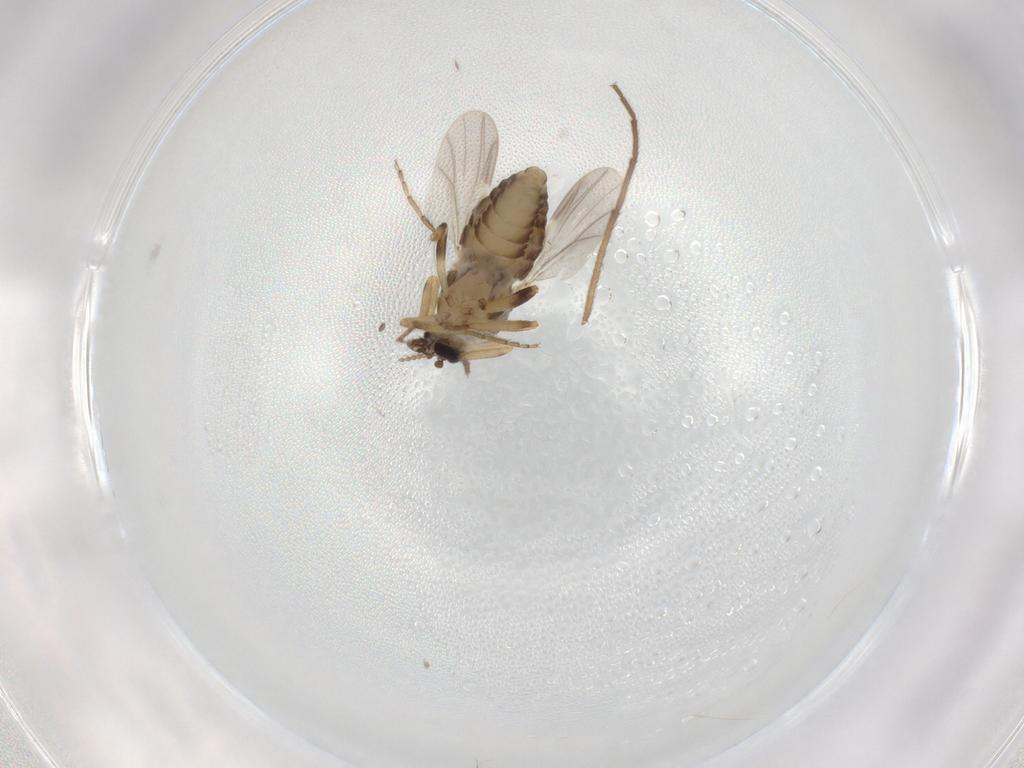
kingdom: Animalia
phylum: Arthropoda
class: Insecta
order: Diptera
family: Ceratopogonidae
